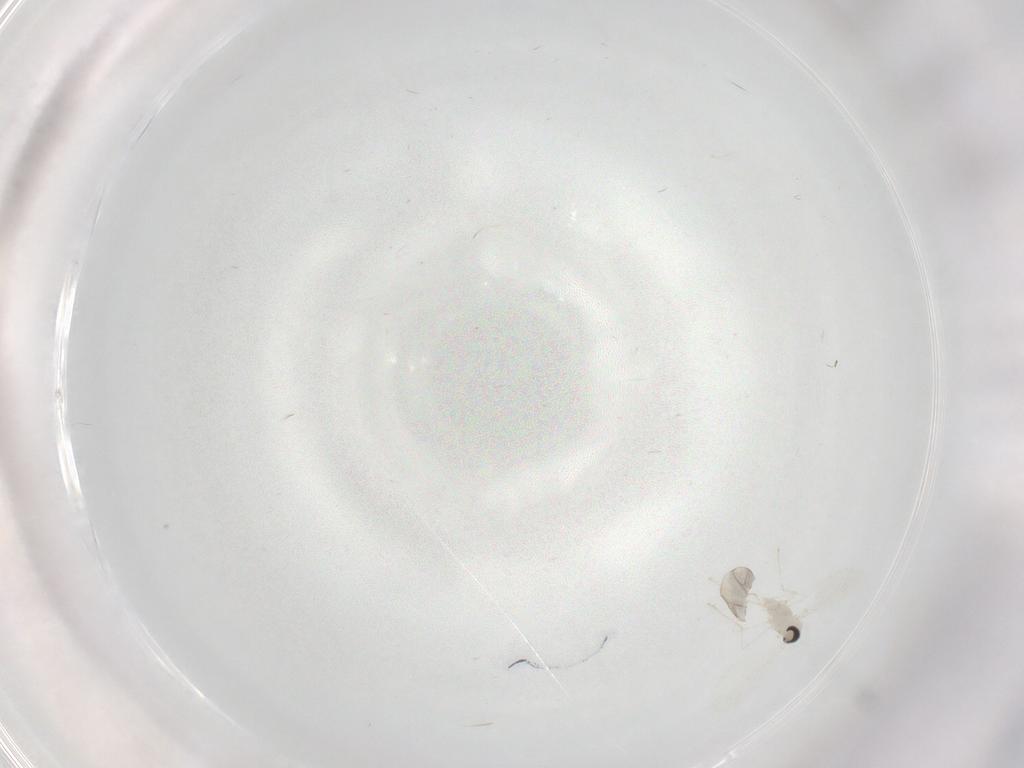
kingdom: Animalia
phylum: Arthropoda
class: Insecta
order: Diptera
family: Cecidomyiidae
